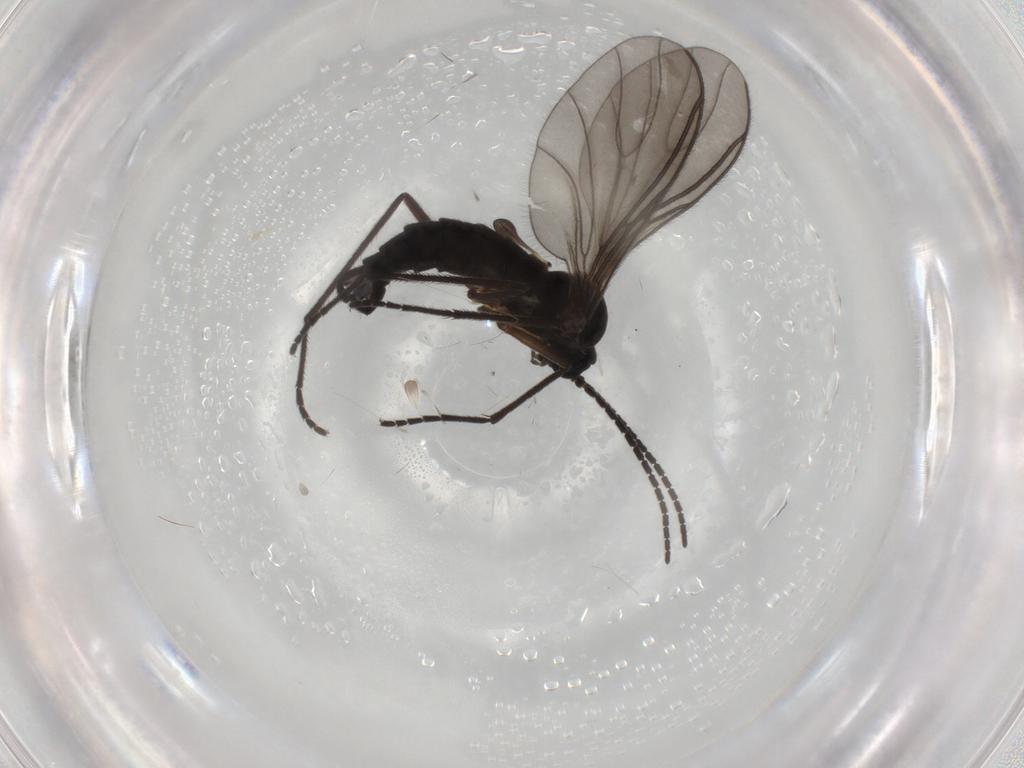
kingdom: Animalia
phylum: Arthropoda
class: Insecta
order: Diptera
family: Sciaridae
